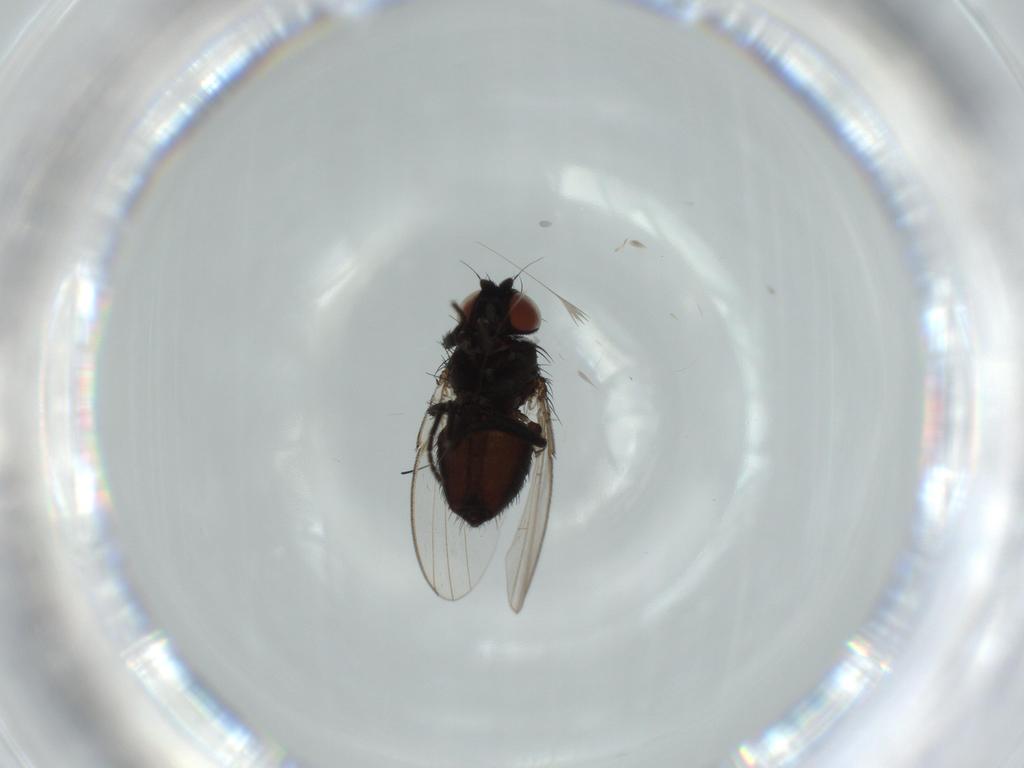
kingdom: Animalia
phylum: Arthropoda
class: Insecta
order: Diptera
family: Milichiidae
